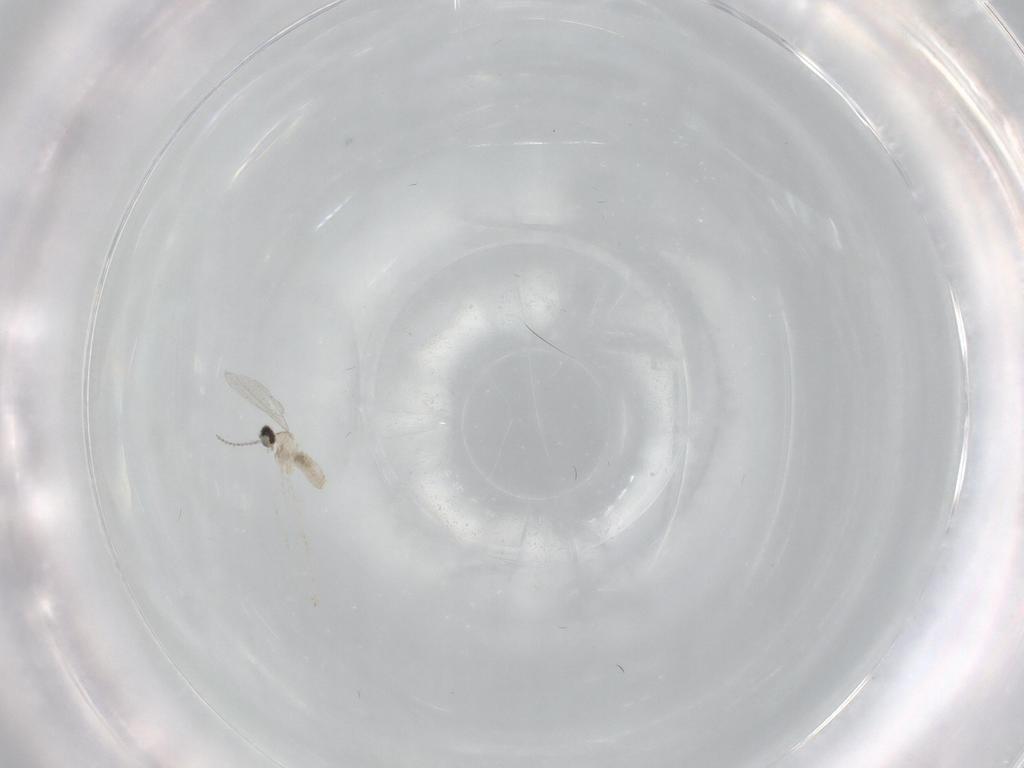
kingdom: Animalia
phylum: Arthropoda
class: Insecta
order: Diptera
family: Cecidomyiidae
